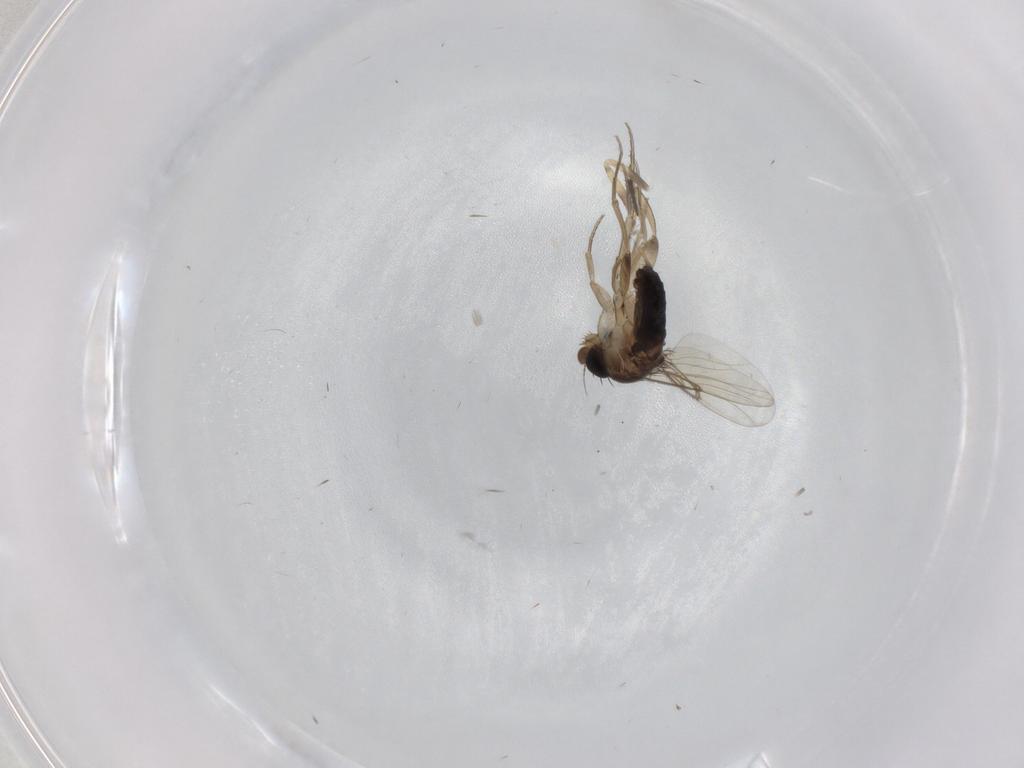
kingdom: Animalia
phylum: Arthropoda
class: Insecta
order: Diptera
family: Phoridae
